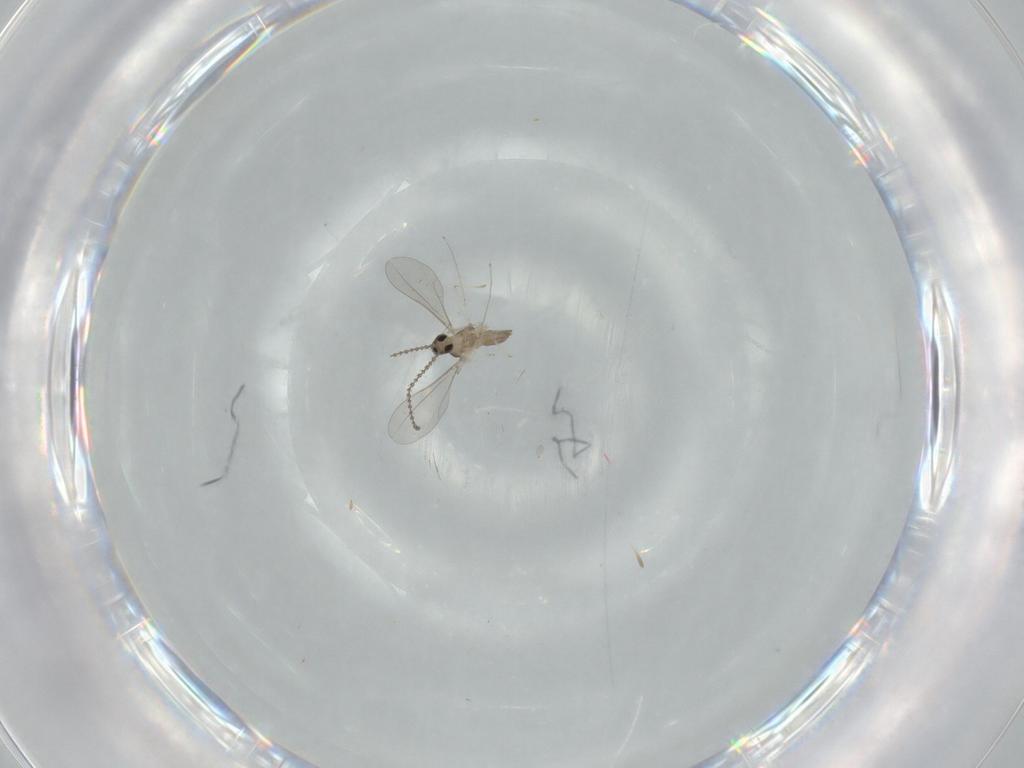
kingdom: Animalia
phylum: Arthropoda
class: Insecta
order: Diptera
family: Cecidomyiidae
